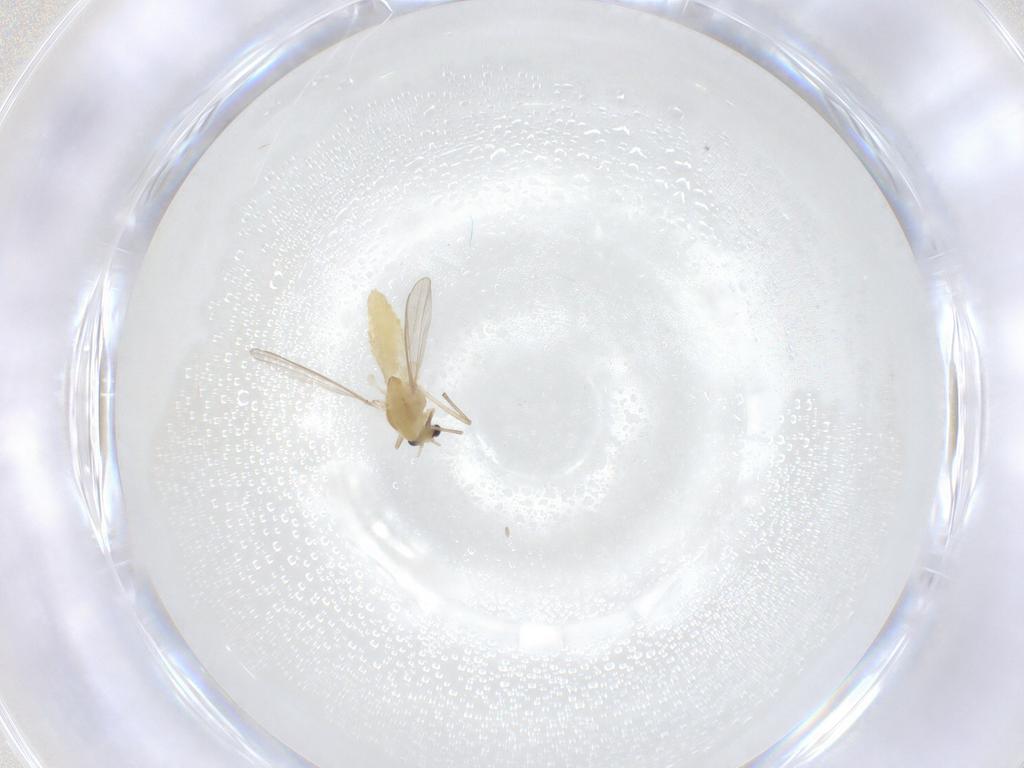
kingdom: Animalia
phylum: Arthropoda
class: Insecta
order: Diptera
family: Chironomidae
